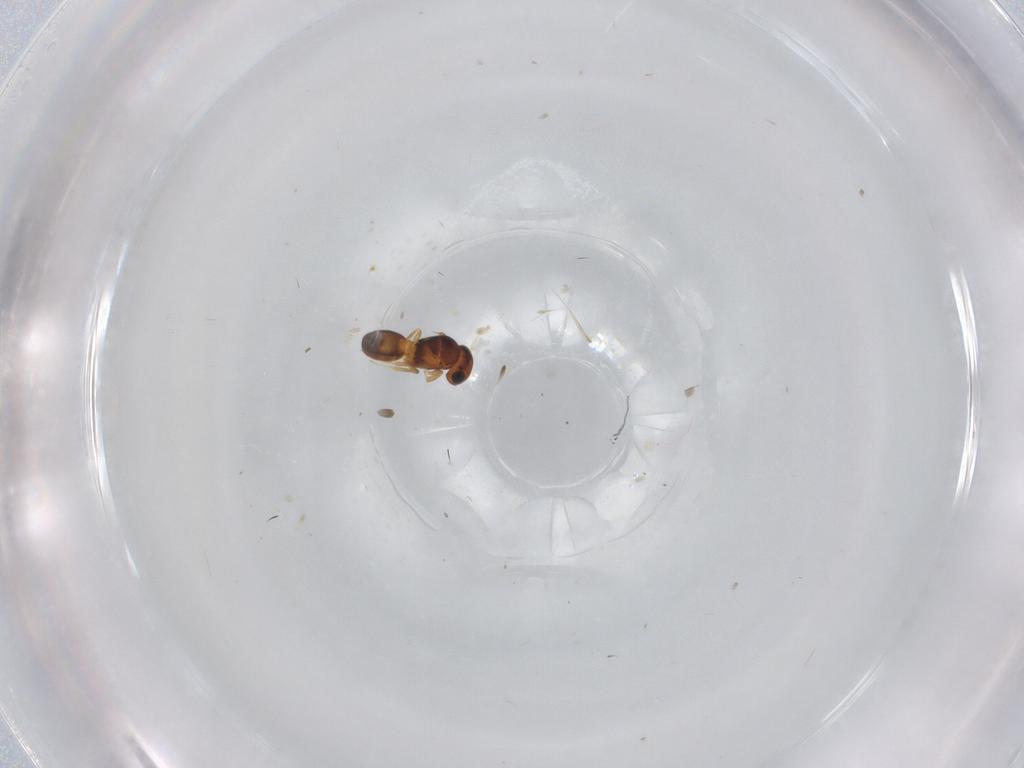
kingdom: Animalia
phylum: Arthropoda
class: Insecta
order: Hymenoptera
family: Scelionidae
